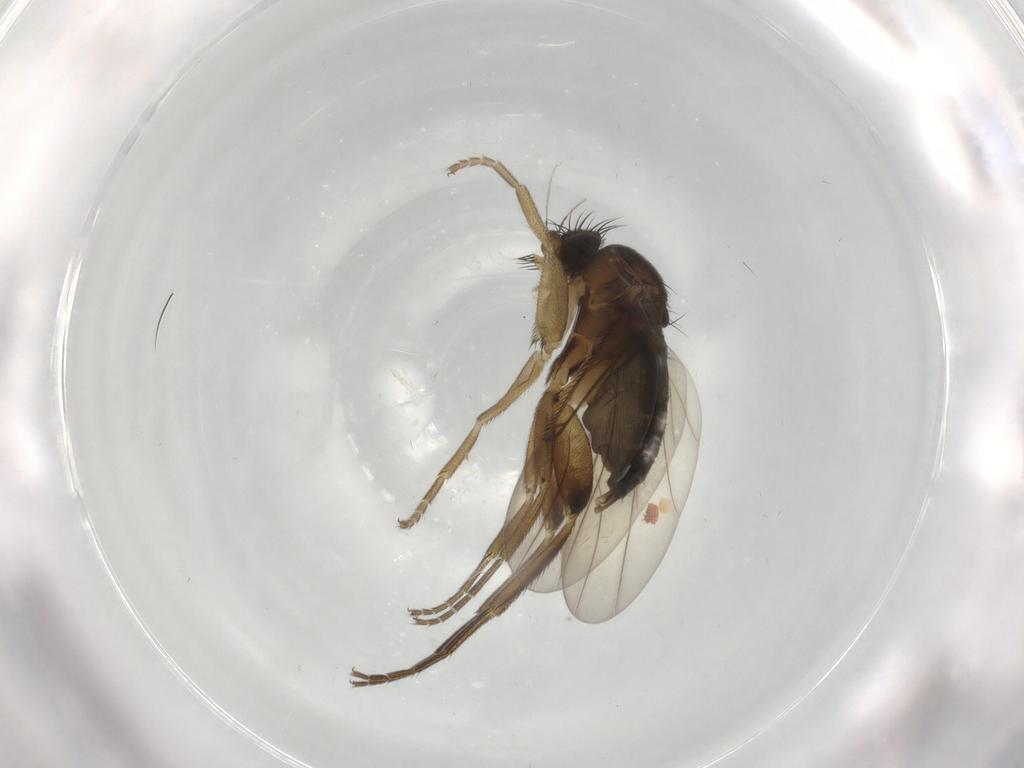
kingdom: Animalia
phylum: Arthropoda
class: Insecta
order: Diptera
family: Phoridae
